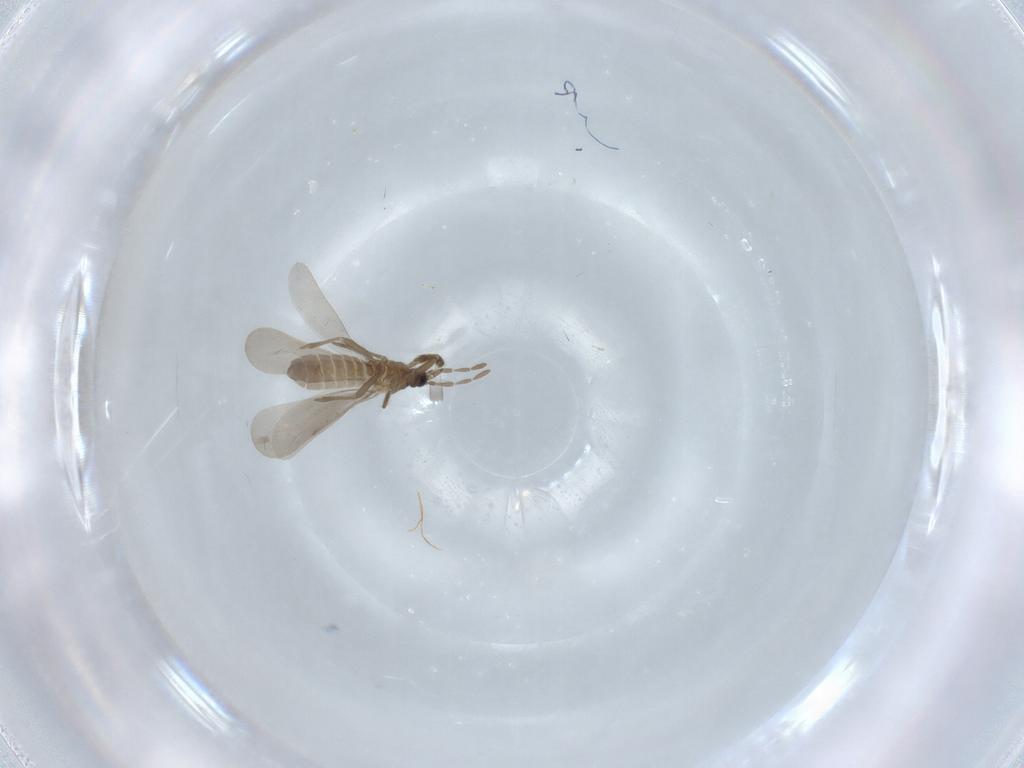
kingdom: Animalia
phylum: Arthropoda
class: Insecta
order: Hemiptera
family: Enicocephalidae
